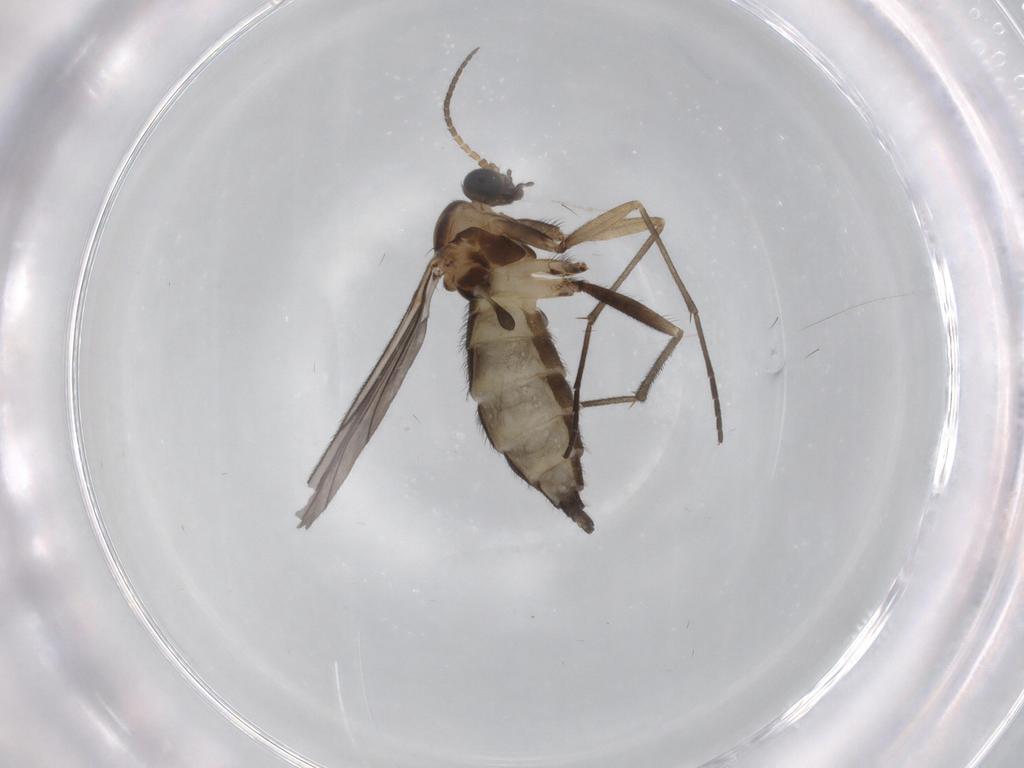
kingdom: Animalia
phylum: Arthropoda
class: Insecta
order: Diptera
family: Sciaridae
